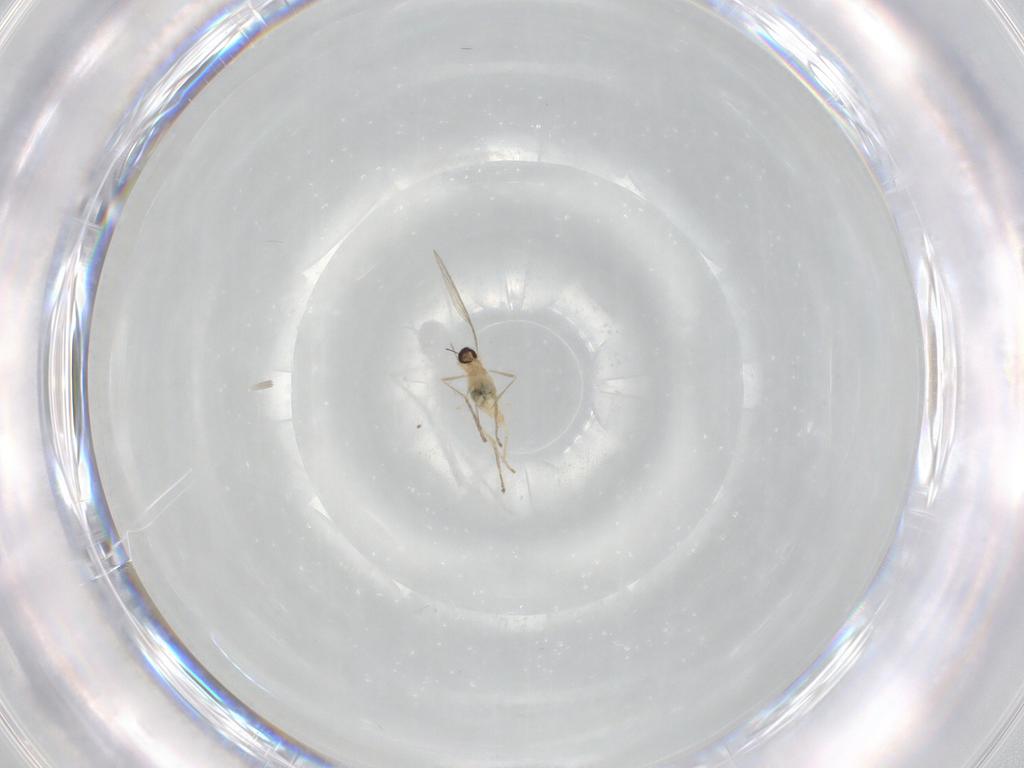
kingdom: Animalia
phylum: Arthropoda
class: Insecta
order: Diptera
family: Cecidomyiidae
